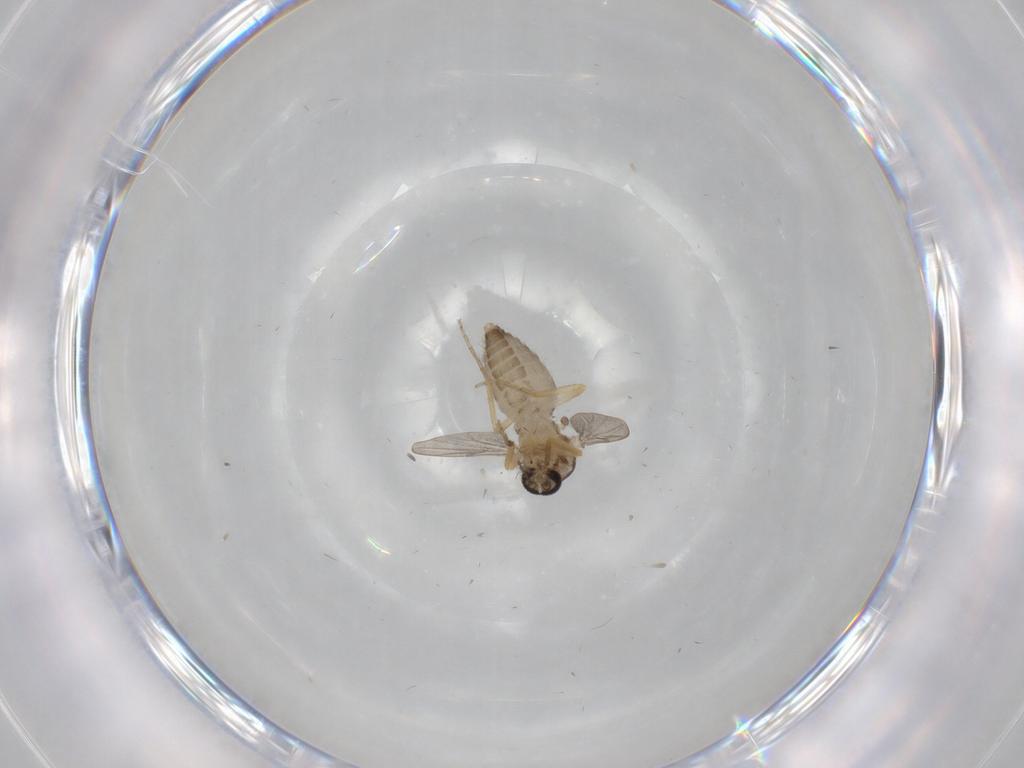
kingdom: Animalia
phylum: Arthropoda
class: Insecta
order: Diptera
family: Ceratopogonidae
